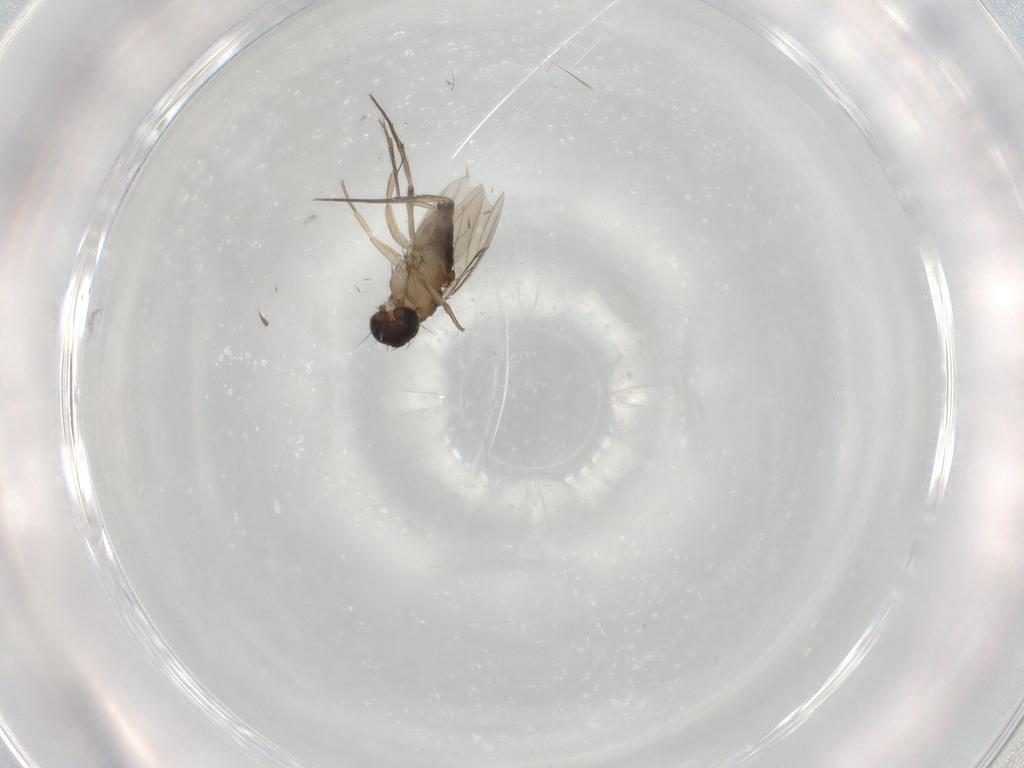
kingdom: Animalia
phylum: Arthropoda
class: Insecta
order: Diptera
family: Phoridae
